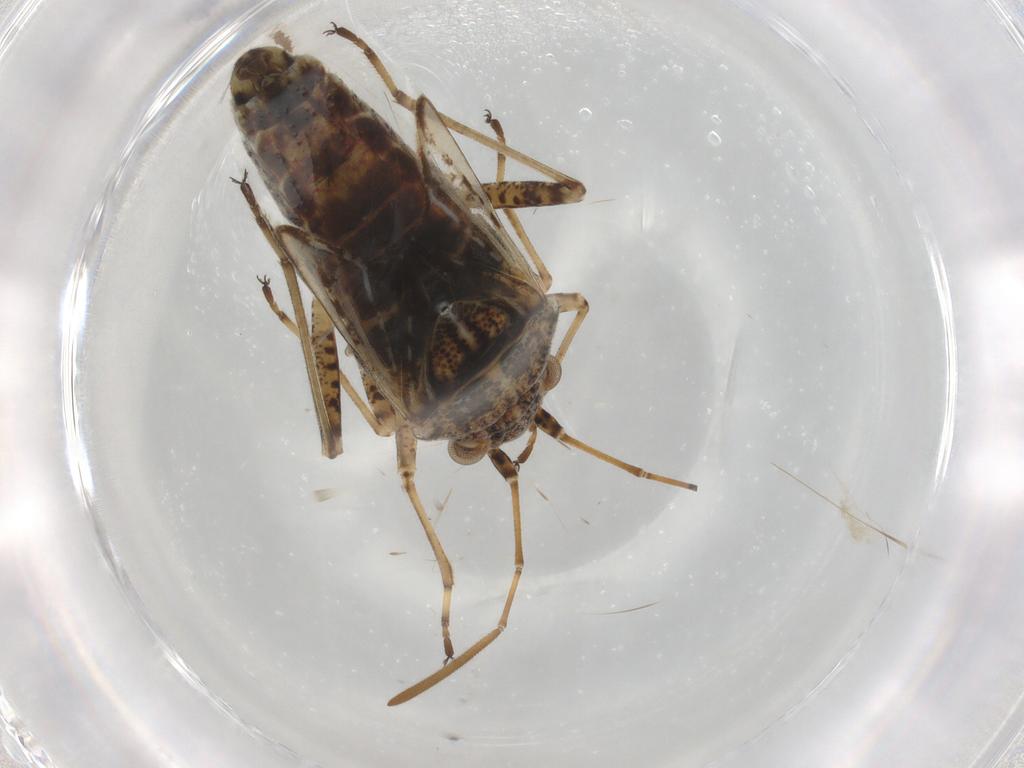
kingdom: Animalia
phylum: Arthropoda
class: Insecta
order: Hemiptera
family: Lygaeidae
